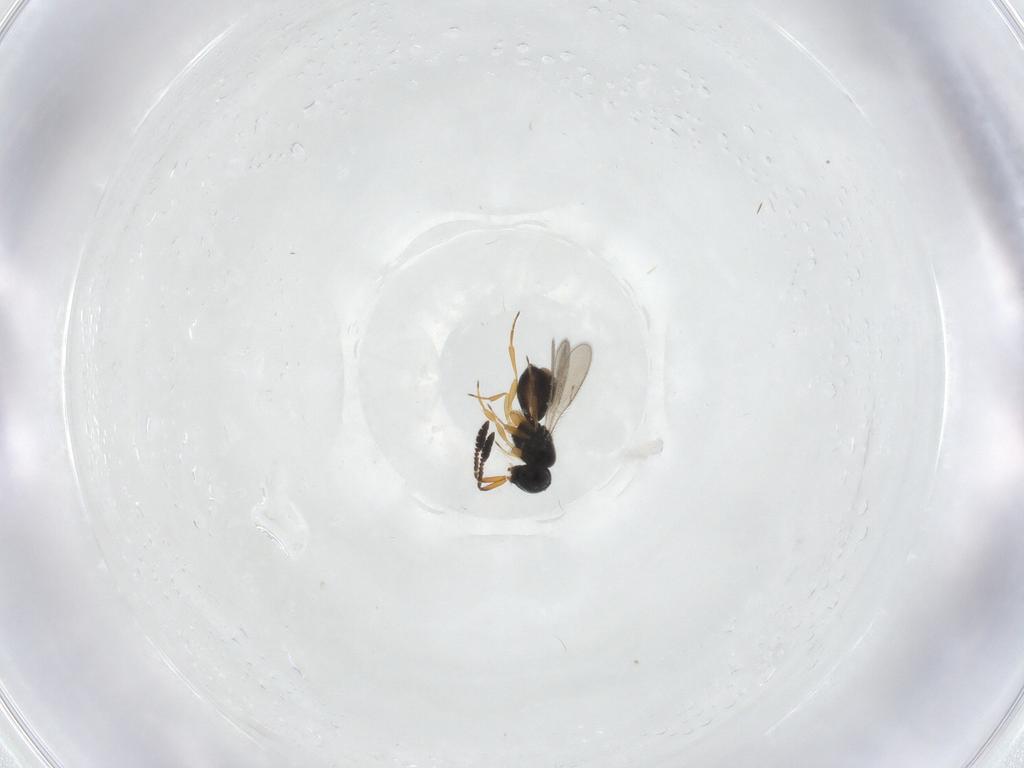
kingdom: Animalia
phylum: Arthropoda
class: Insecta
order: Hymenoptera
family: Scelionidae
